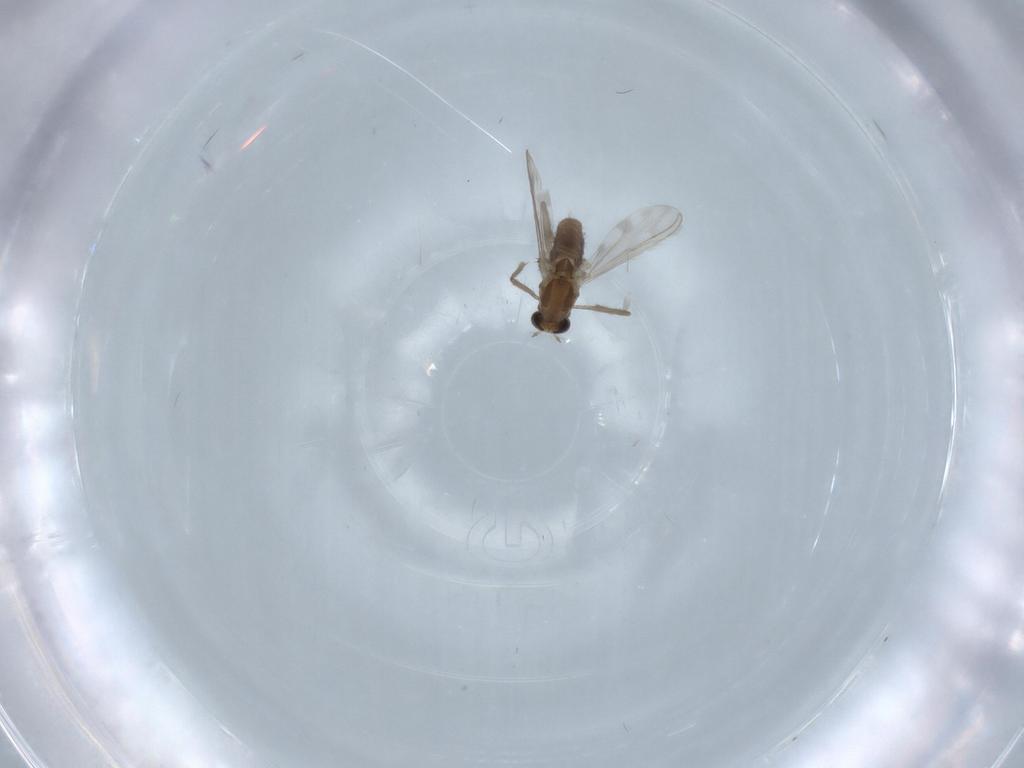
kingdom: Animalia
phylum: Arthropoda
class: Insecta
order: Diptera
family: Chironomidae
